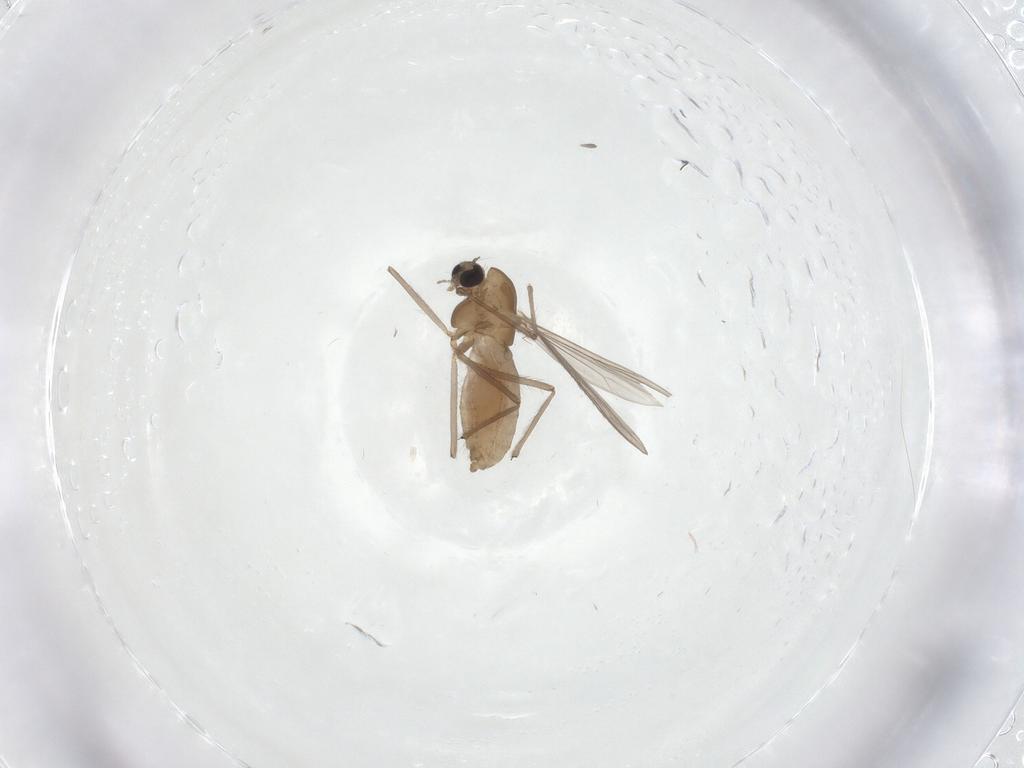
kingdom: Animalia
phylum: Arthropoda
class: Insecta
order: Diptera
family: Chironomidae
